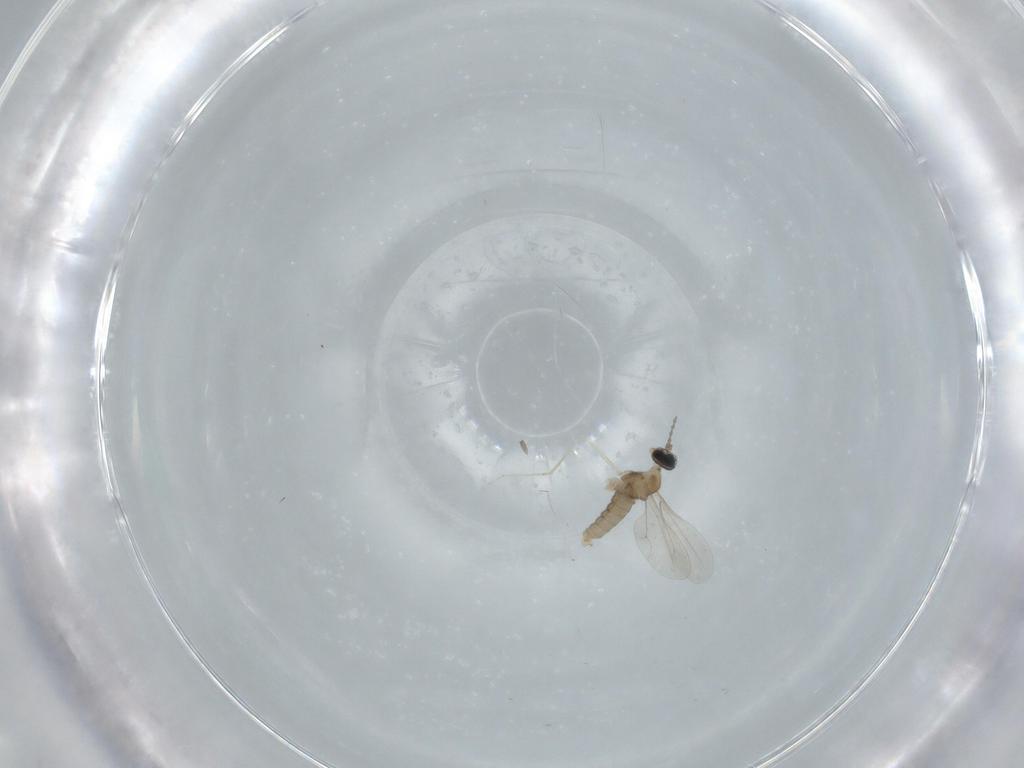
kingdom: Animalia
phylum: Arthropoda
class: Insecta
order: Diptera
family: Cecidomyiidae
